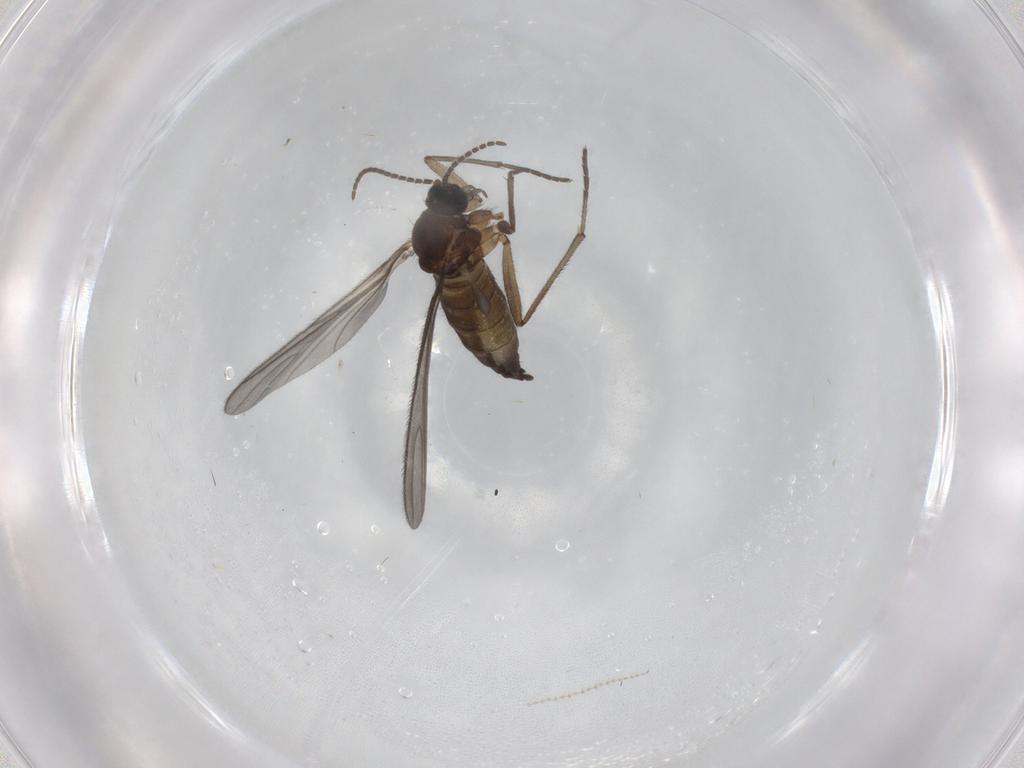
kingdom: Animalia
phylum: Arthropoda
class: Insecta
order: Diptera
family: Sciaridae
